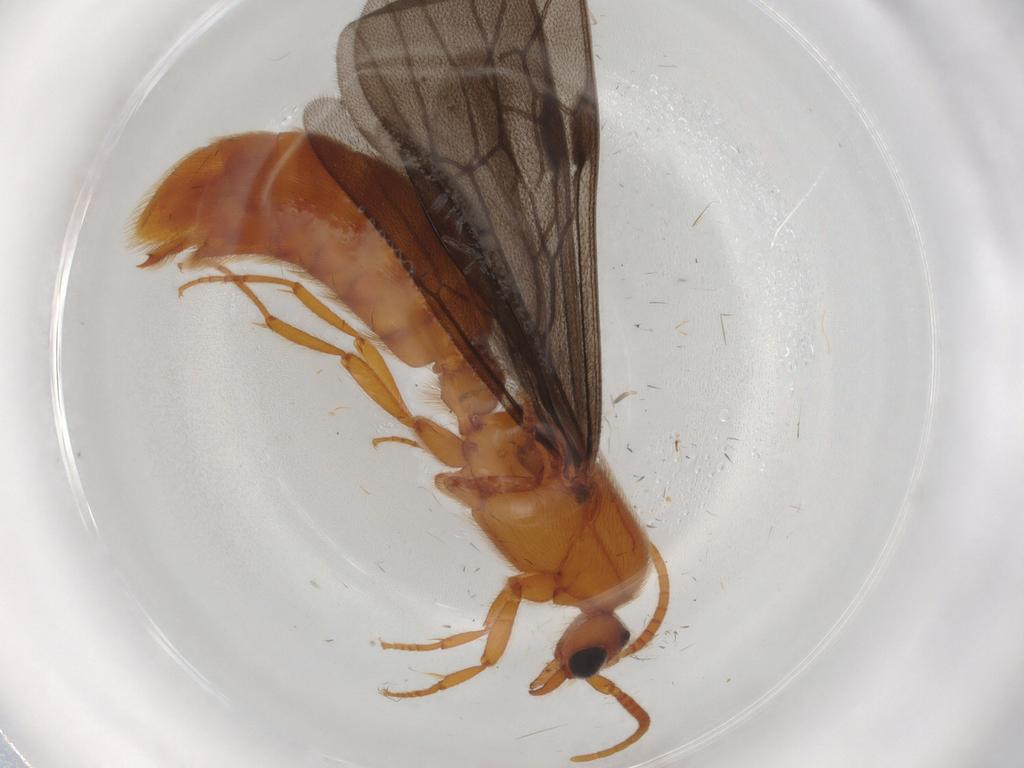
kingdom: Animalia
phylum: Arthropoda
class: Insecta
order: Hymenoptera
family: Formicidae
